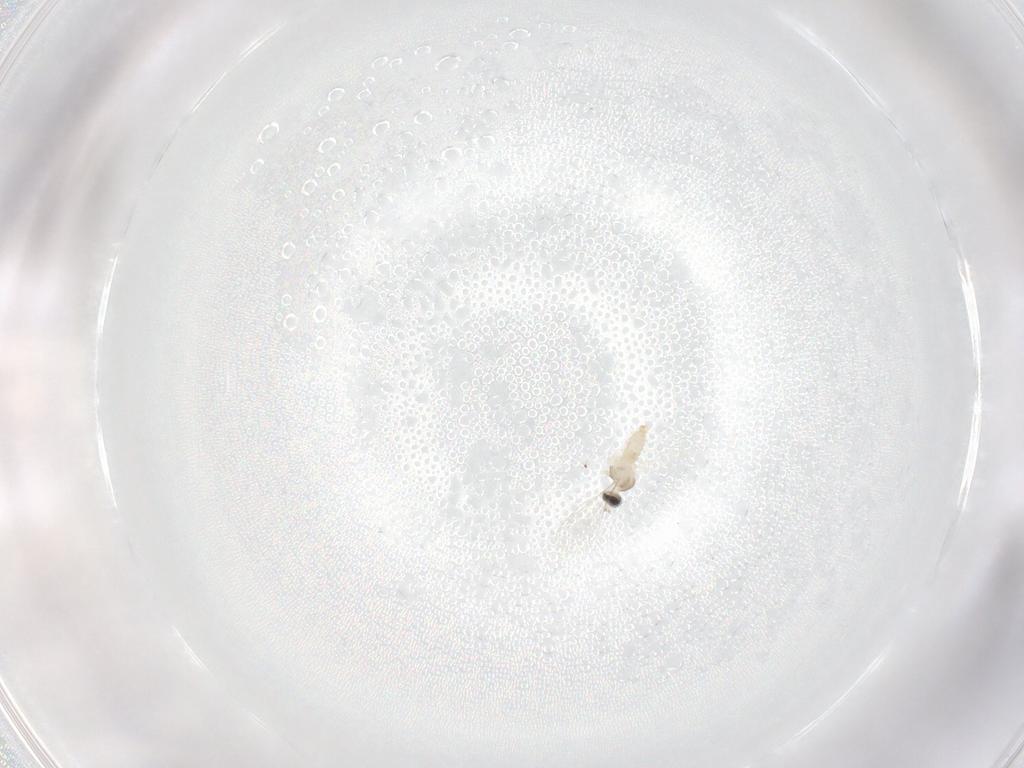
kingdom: Animalia
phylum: Arthropoda
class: Insecta
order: Diptera
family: Cecidomyiidae
